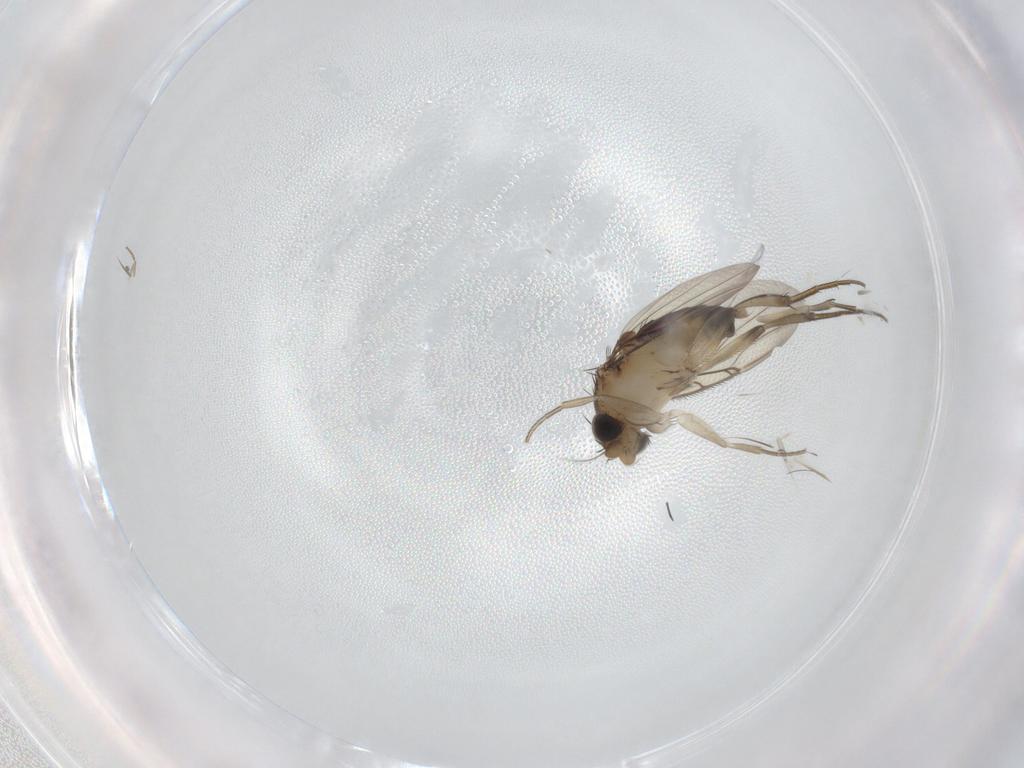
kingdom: Animalia
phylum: Arthropoda
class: Insecta
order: Diptera
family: Phoridae
